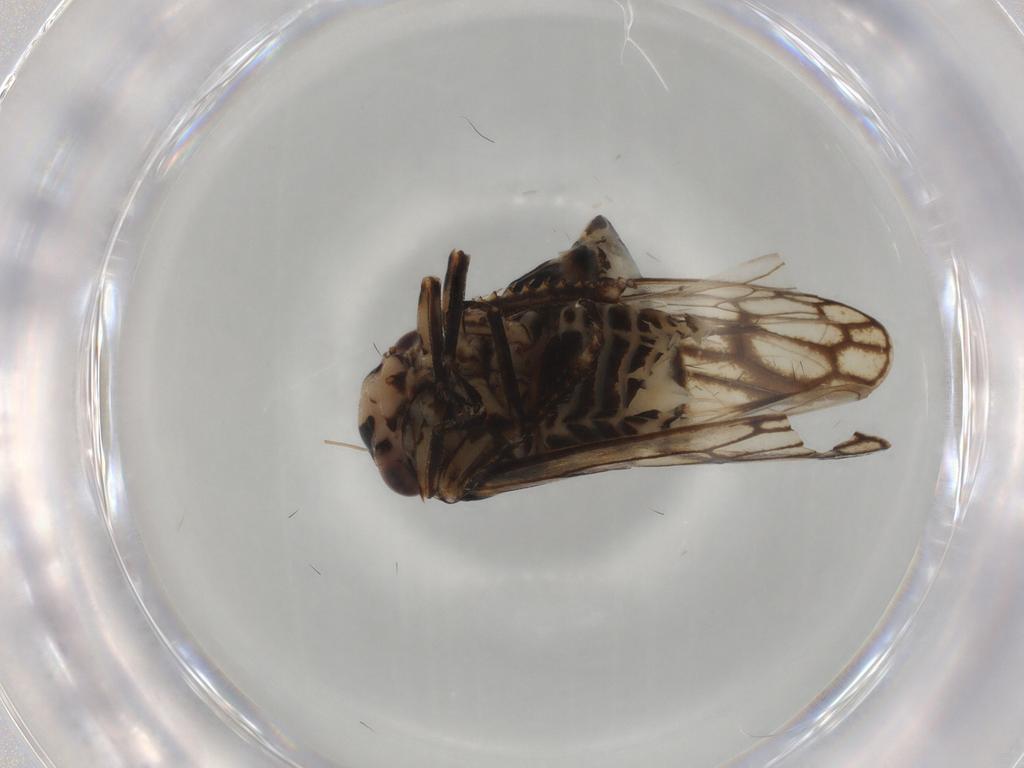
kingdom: Animalia
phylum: Arthropoda
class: Insecta
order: Hemiptera
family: Cicadellidae
